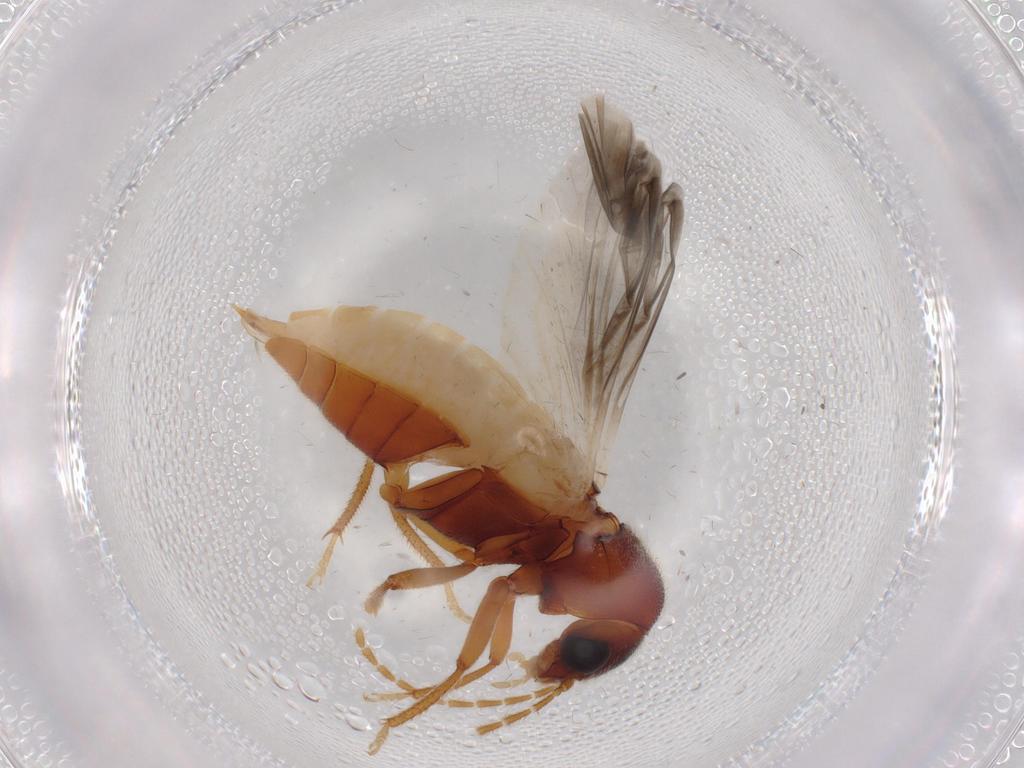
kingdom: Animalia
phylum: Arthropoda
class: Insecta
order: Coleoptera
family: Ptilodactylidae
